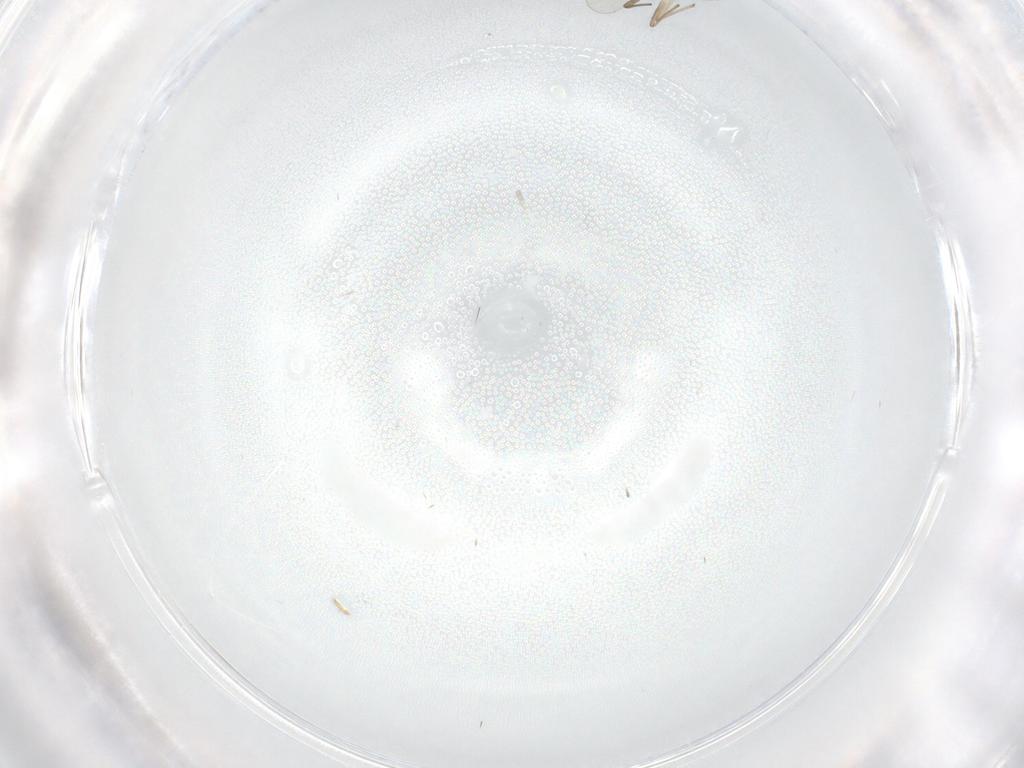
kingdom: Animalia
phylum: Arthropoda
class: Insecta
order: Diptera
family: Chironomidae
